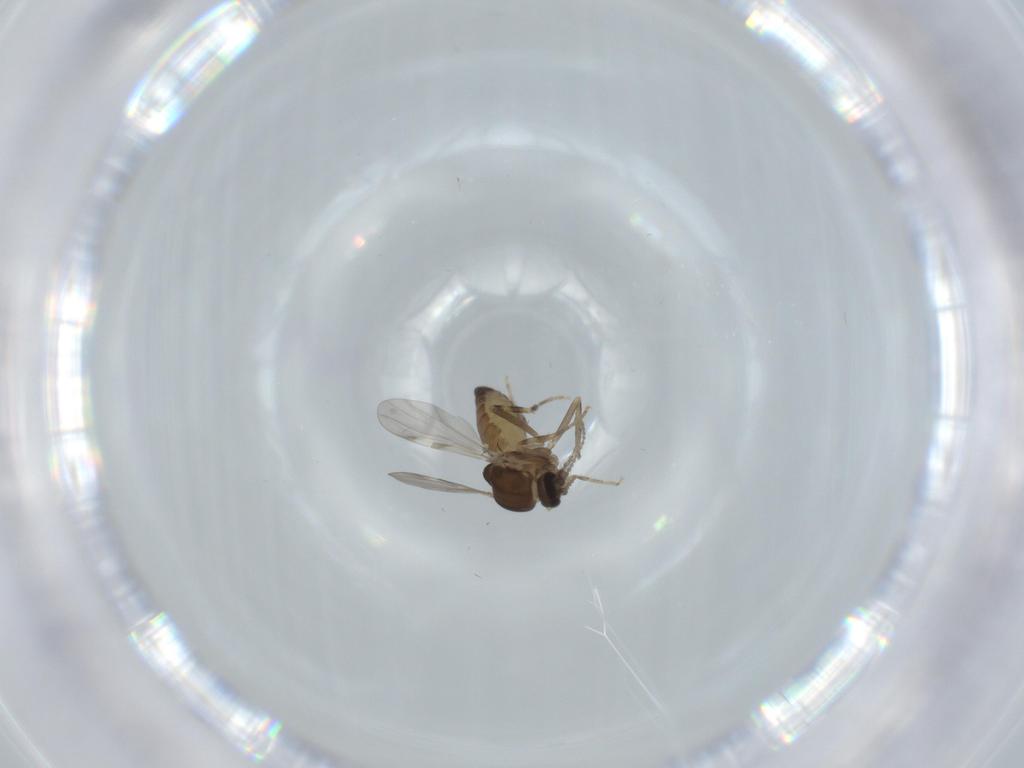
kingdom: Animalia
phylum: Arthropoda
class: Insecta
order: Diptera
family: Ceratopogonidae
